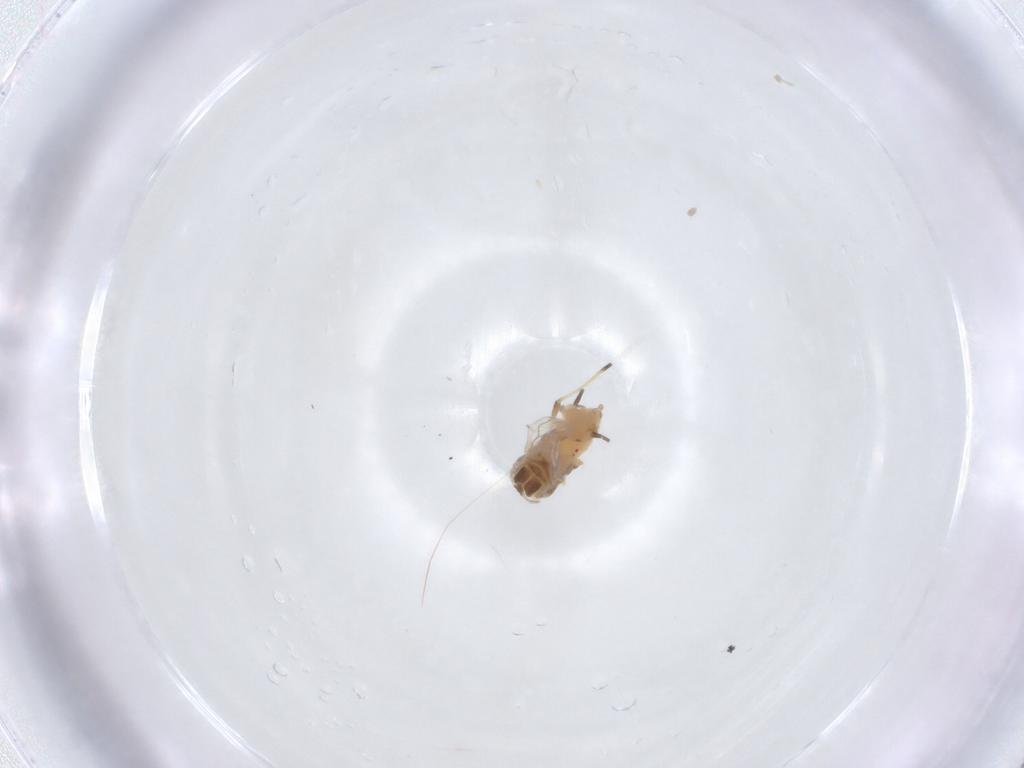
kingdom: Animalia
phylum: Arthropoda
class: Insecta
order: Hemiptera
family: Aphididae
